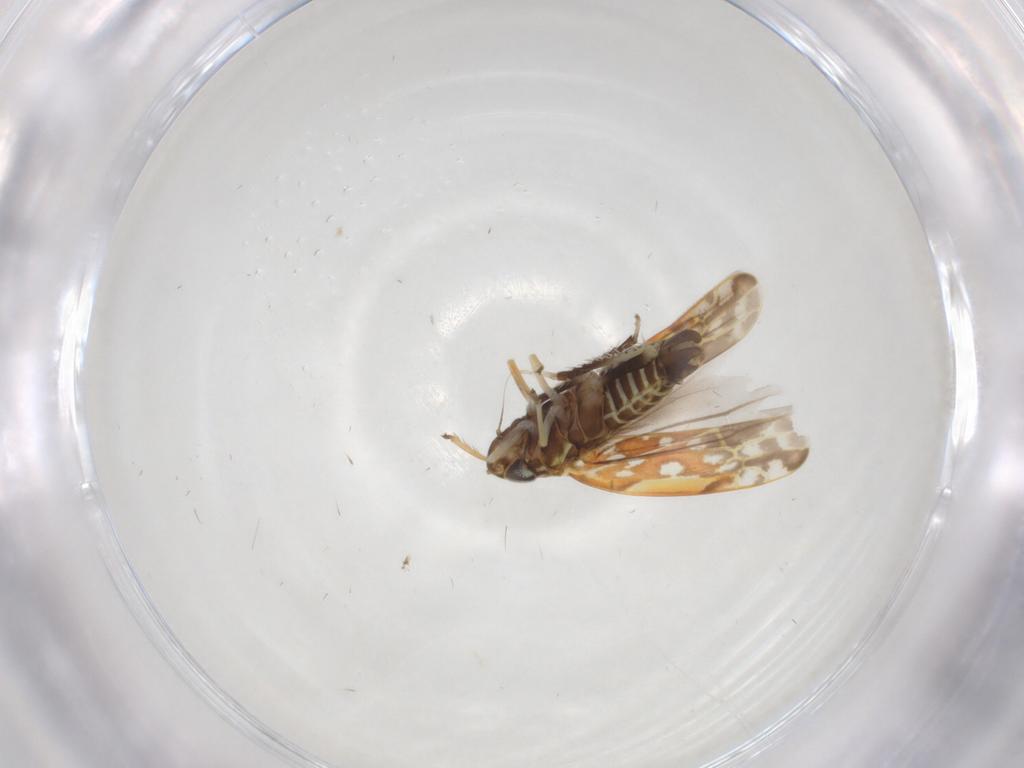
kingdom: Animalia
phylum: Arthropoda
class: Insecta
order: Hemiptera
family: Cicadellidae
